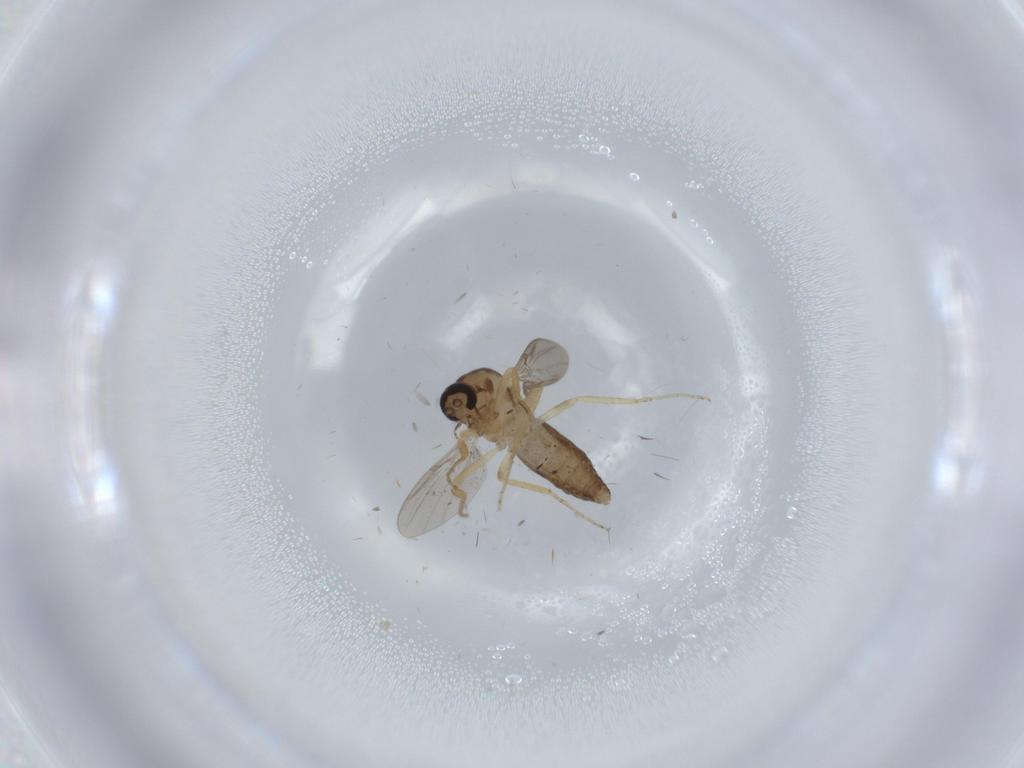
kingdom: Animalia
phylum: Arthropoda
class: Insecta
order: Diptera
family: Ceratopogonidae
